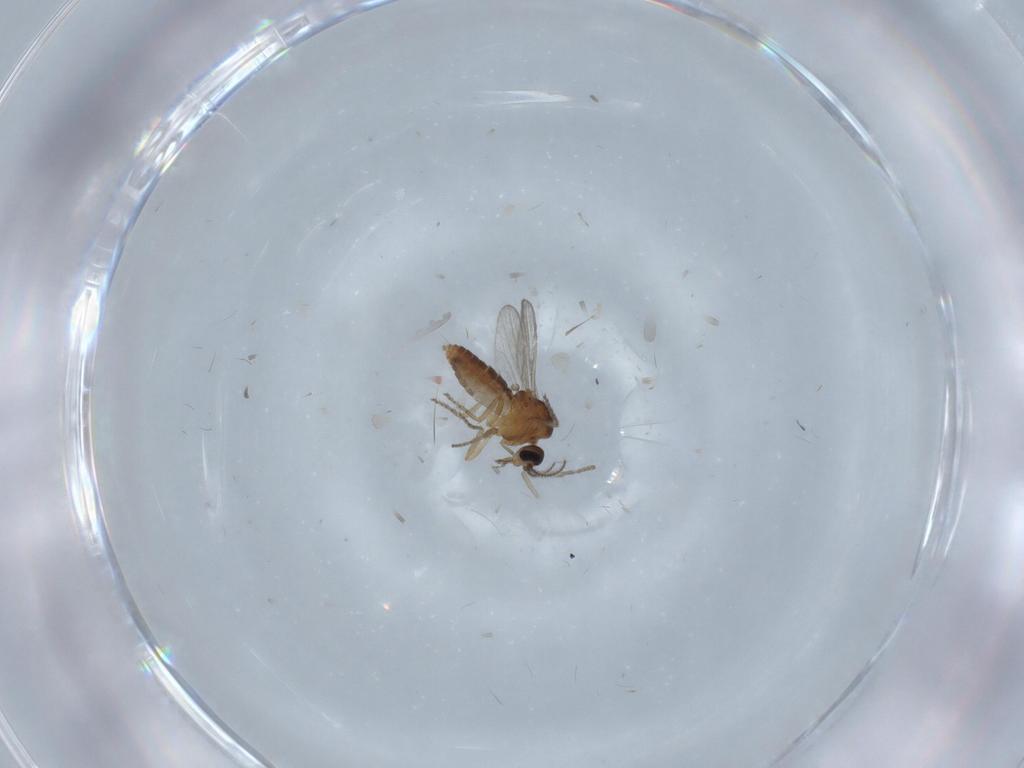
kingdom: Animalia
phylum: Arthropoda
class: Insecta
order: Diptera
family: Ceratopogonidae
